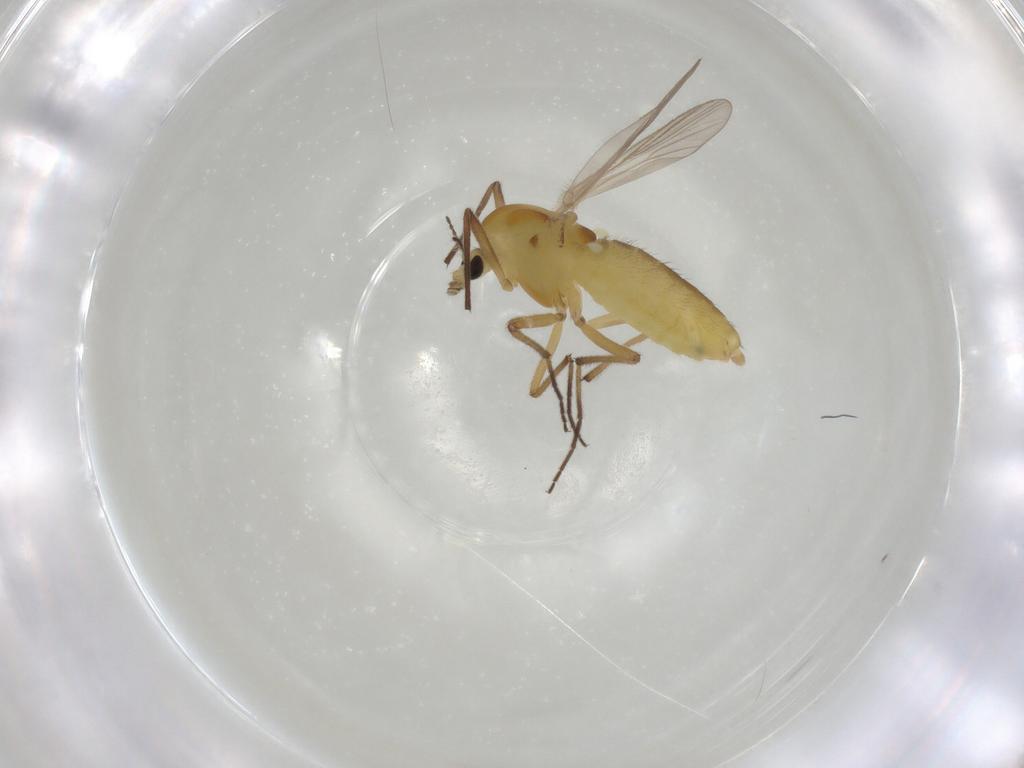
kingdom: Animalia
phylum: Arthropoda
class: Insecta
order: Diptera
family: Chironomidae
